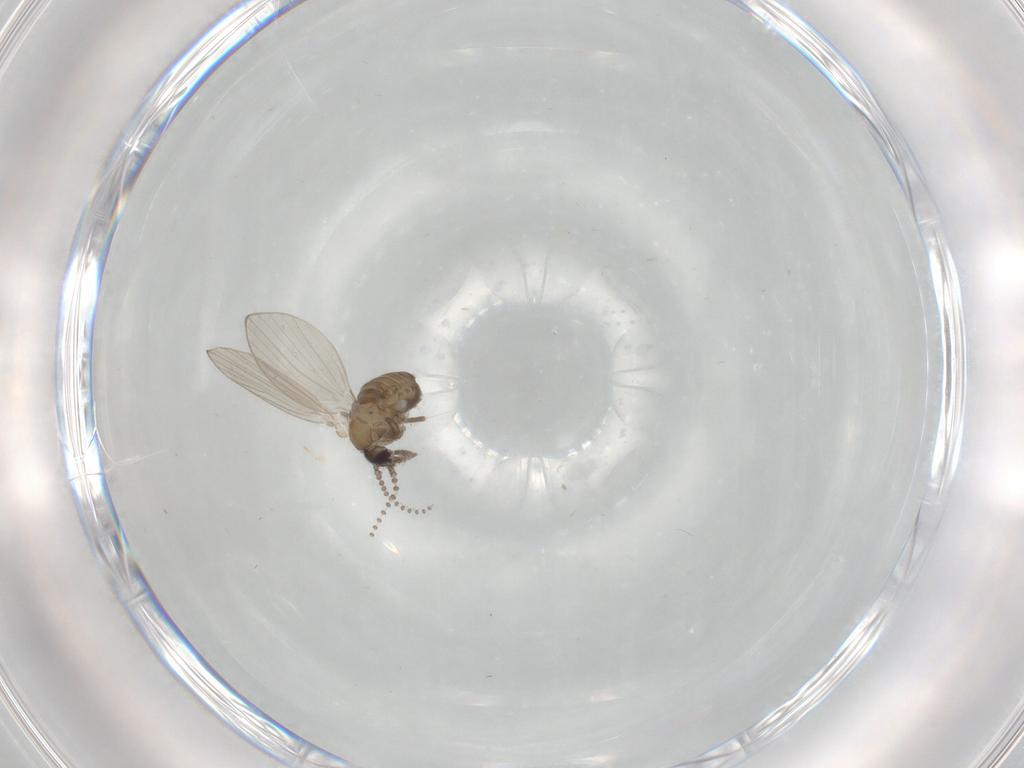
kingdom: Animalia
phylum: Arthropoda
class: Insecta
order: Diptera
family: Psychodidae
